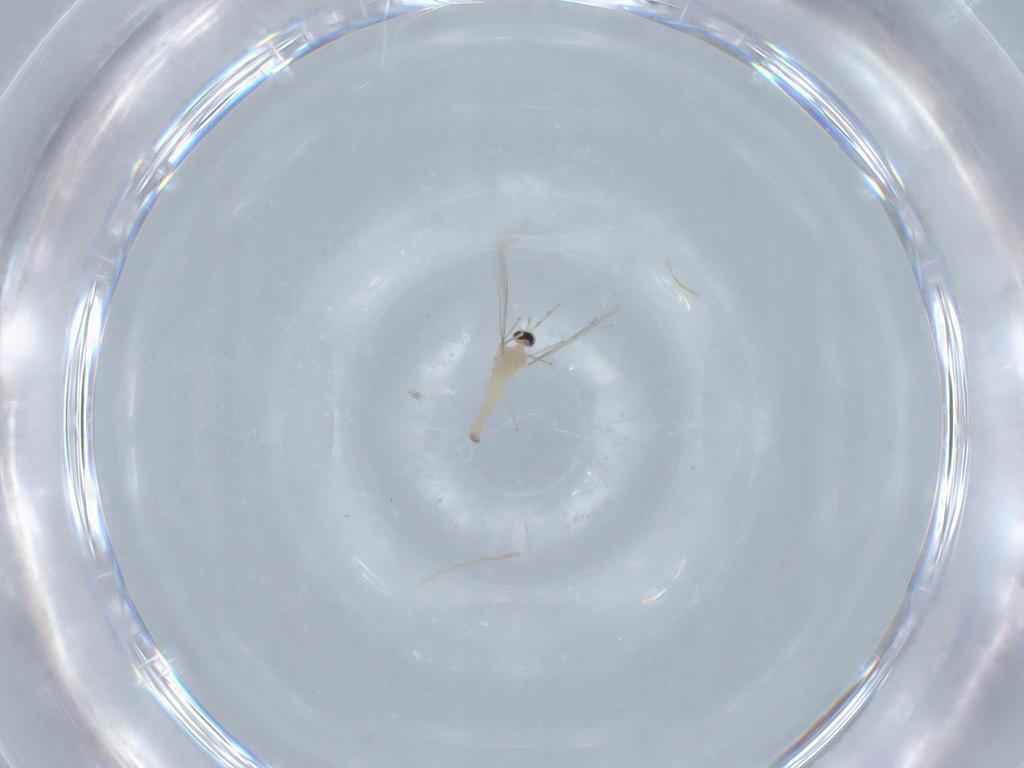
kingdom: Animalia
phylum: Arthropoda
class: Insecta
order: Diptera
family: Cecidomyiidae
